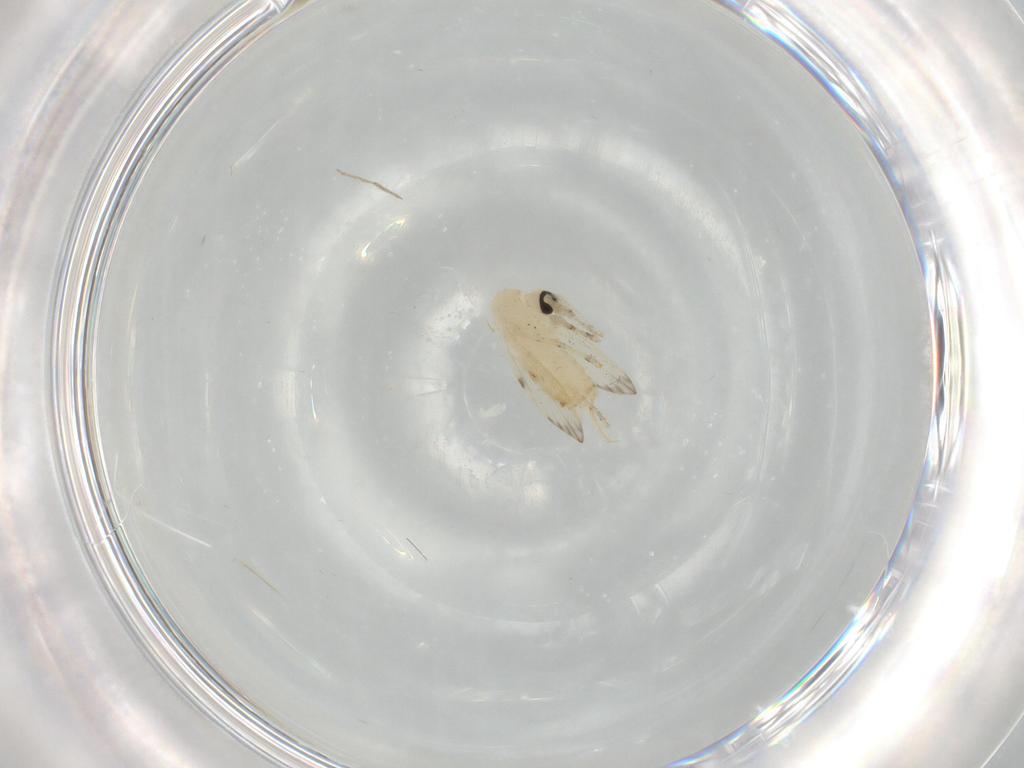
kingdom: Animalia
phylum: Arthropoda
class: Insecta
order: Diptera
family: Psychodidae
